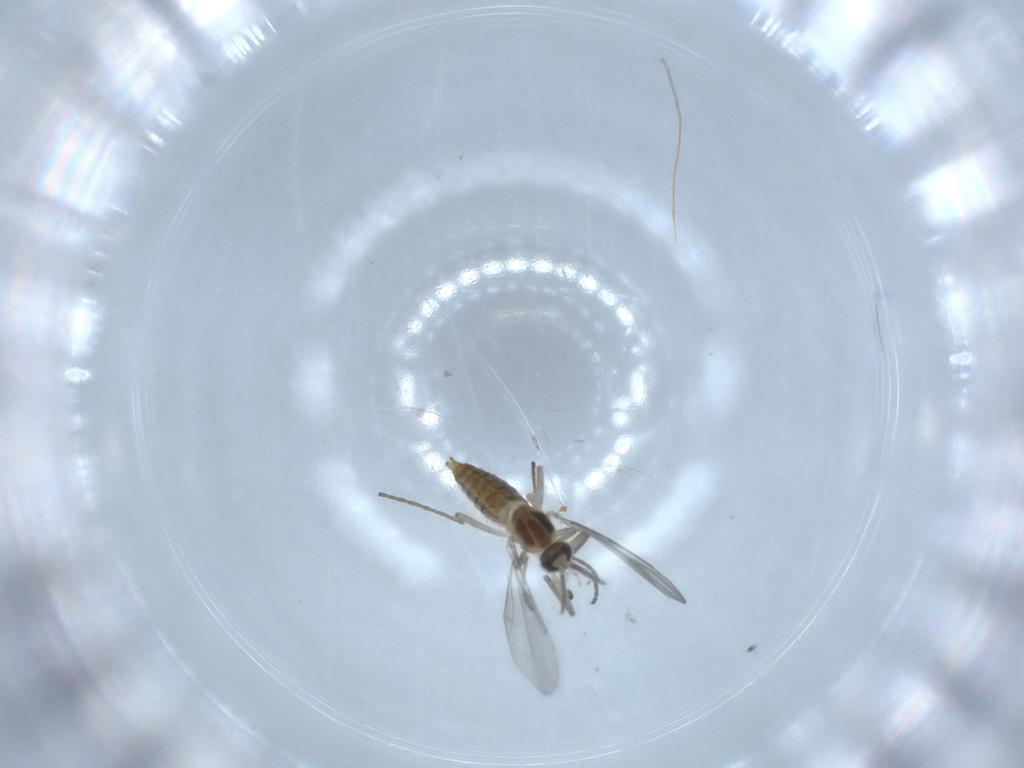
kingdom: Animalia
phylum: Arthropoda
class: Insecta
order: Diptera
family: Cecidomyiidae
